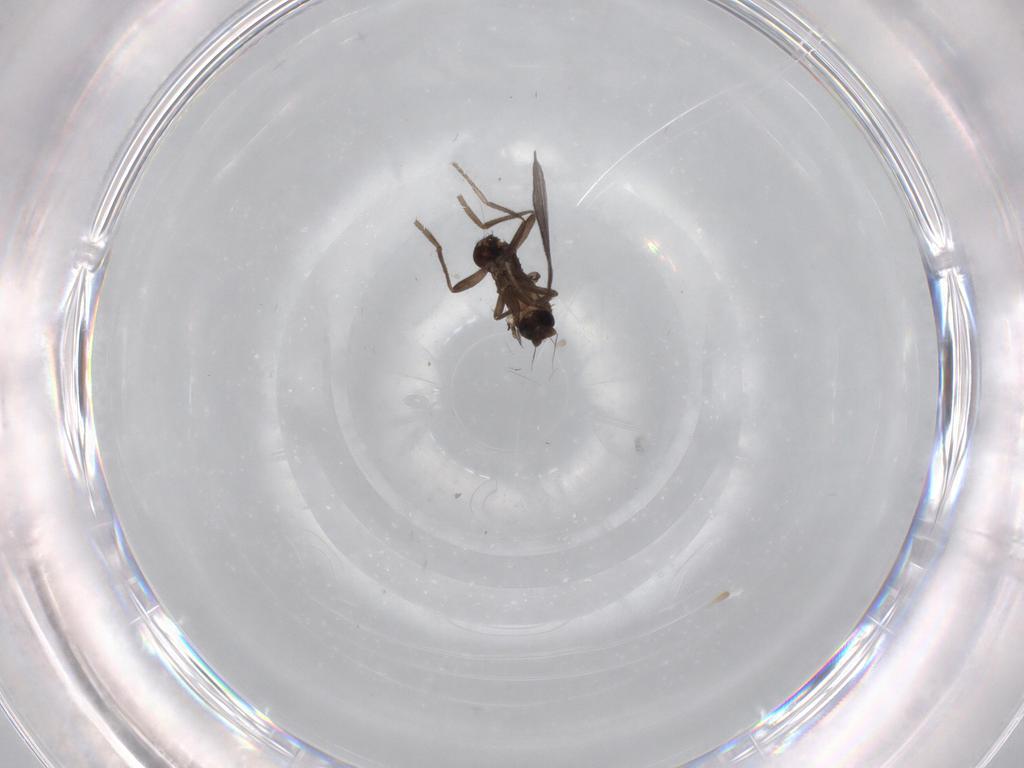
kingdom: Animalia
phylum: Arthropoda
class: Insecta
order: Diptera
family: Phoridae
